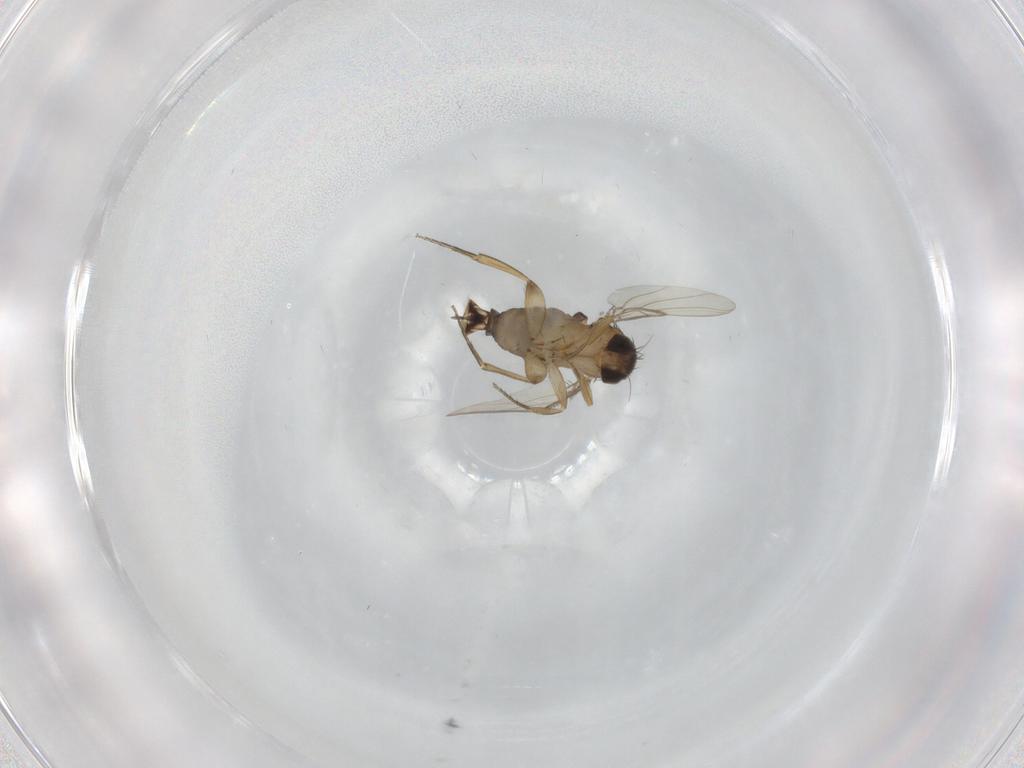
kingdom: Animalia
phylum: Arthropoda
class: Insecta
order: Diptera
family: Phoridae
